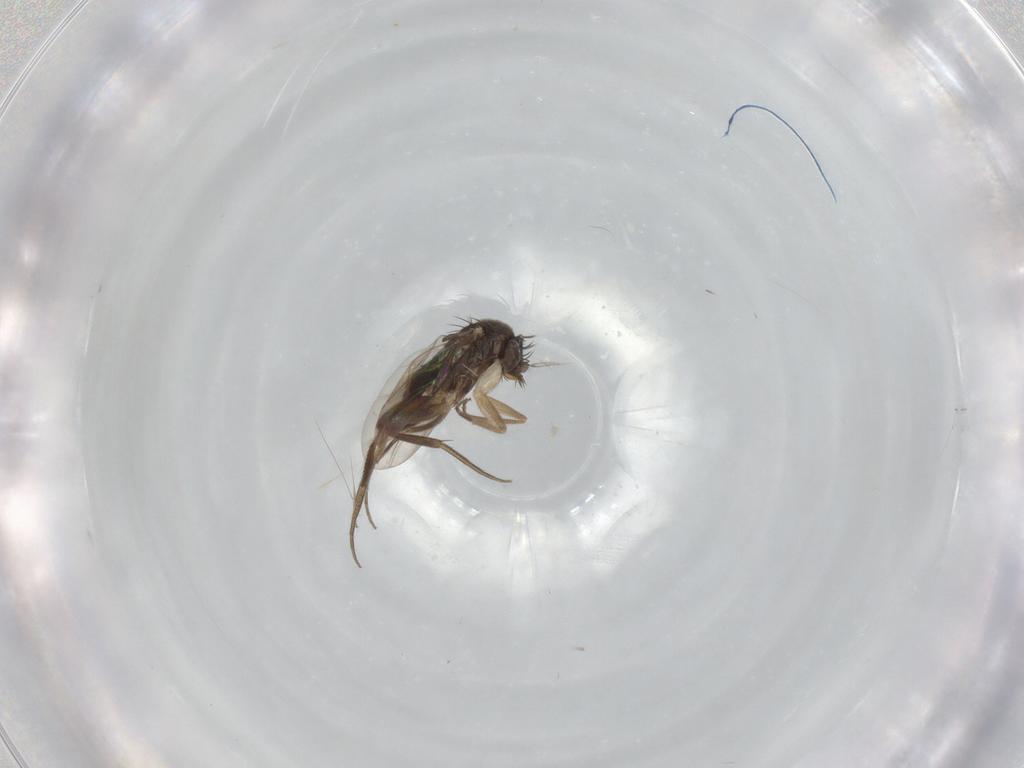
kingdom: Animalia
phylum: Arthropoda
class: Insecta
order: Diptera
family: Phoridae
